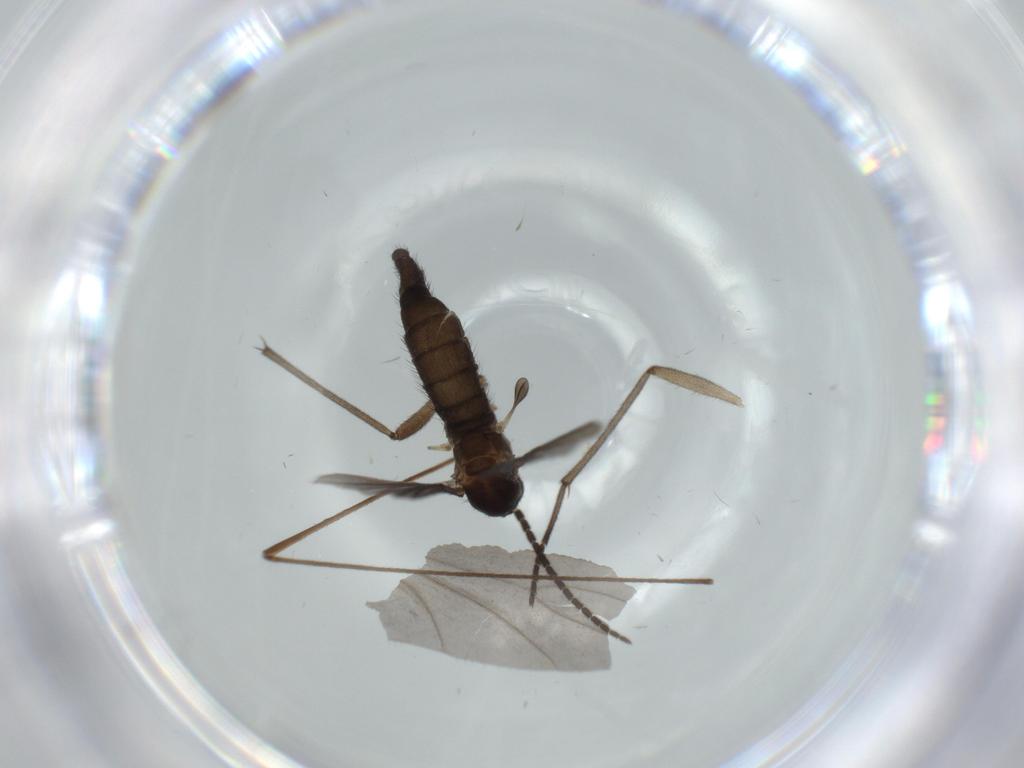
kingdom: Animalia
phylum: Arthropoda
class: Insecta
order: Diptera
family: Sciaridae
